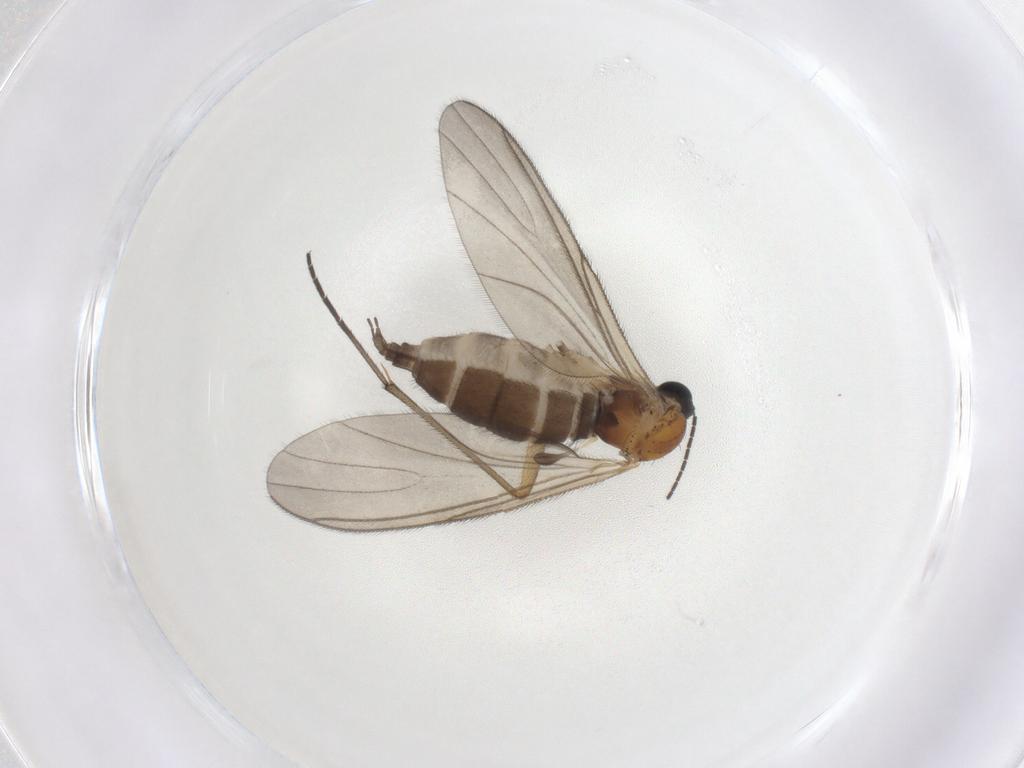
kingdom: Animalia
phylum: Arthropoda
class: Insecta
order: Diptera
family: Sciaridae
